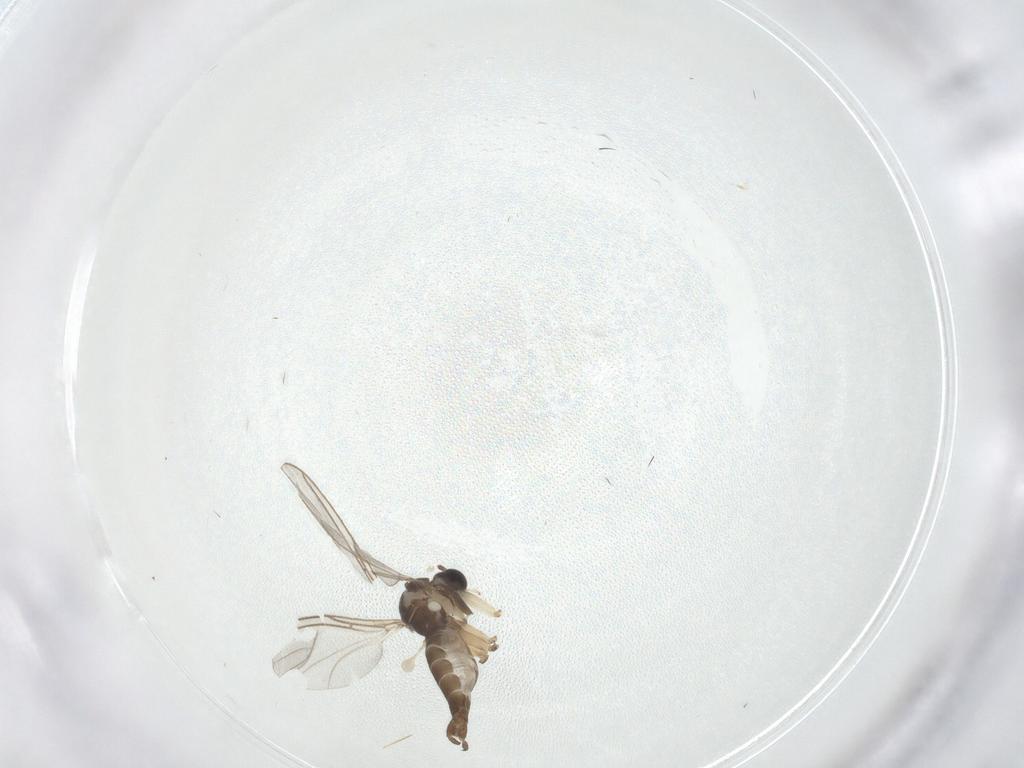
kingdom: Animalia
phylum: Arthropoda
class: Insecta
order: Diptera
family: Sciaridae
